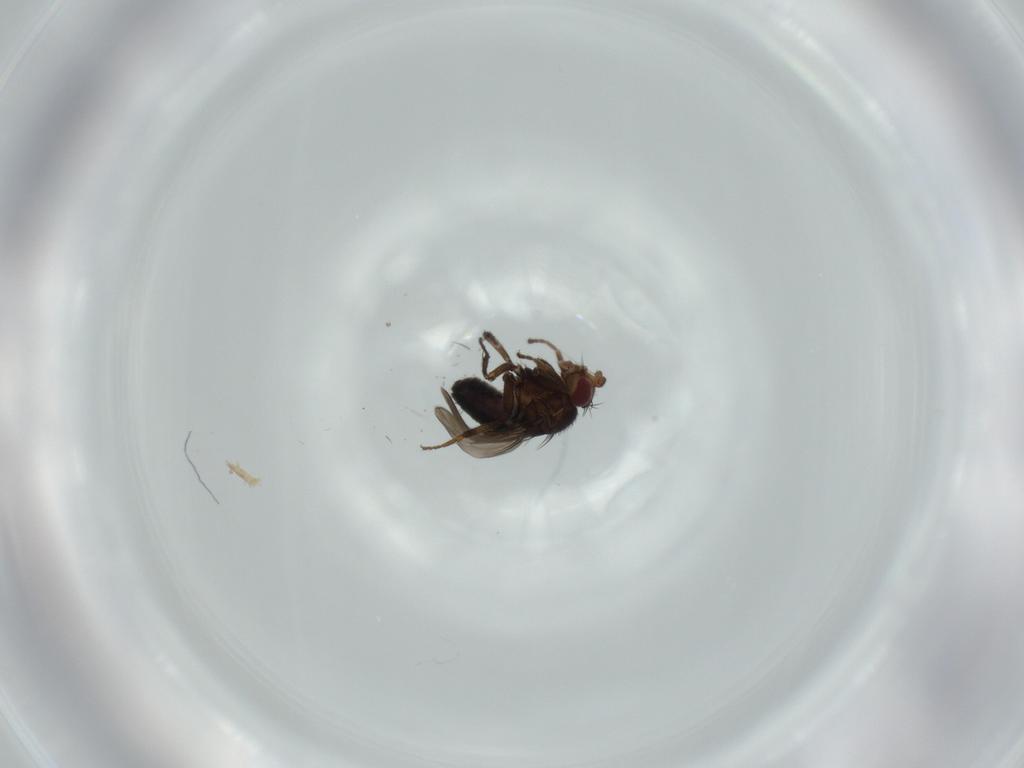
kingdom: Animalia
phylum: Arthropoda
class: Insecta
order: Diptera
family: Sphaeroceridae
